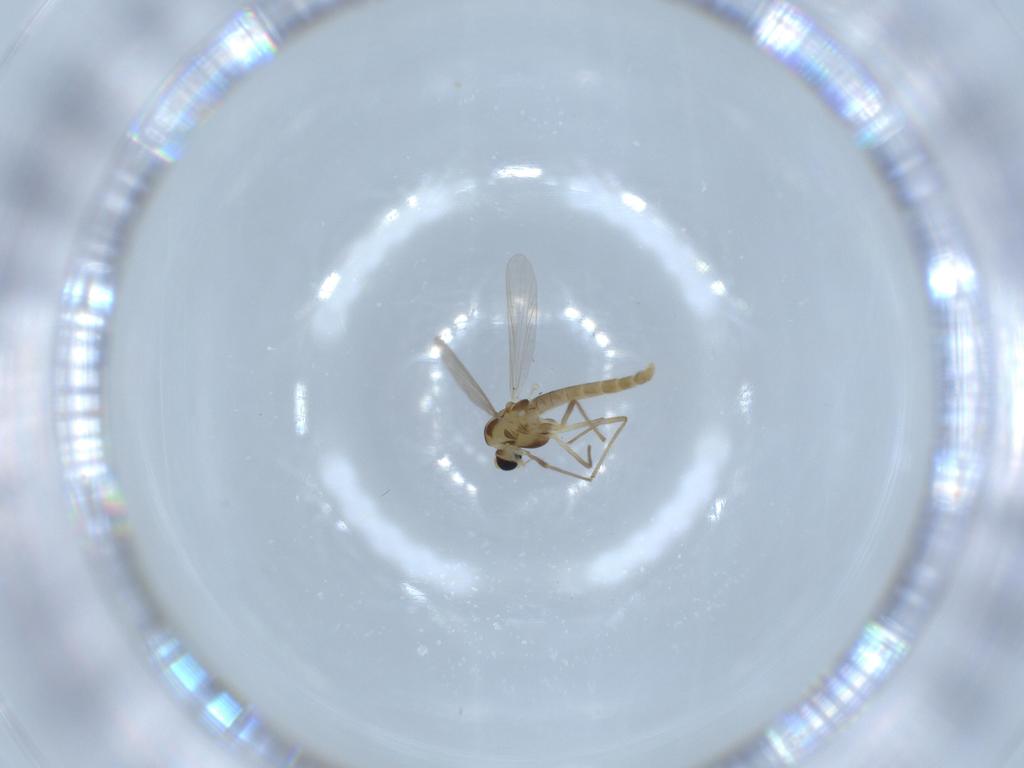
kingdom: Animalia
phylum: Arthropoda
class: Insecta
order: Diptera
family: Chironomidae
